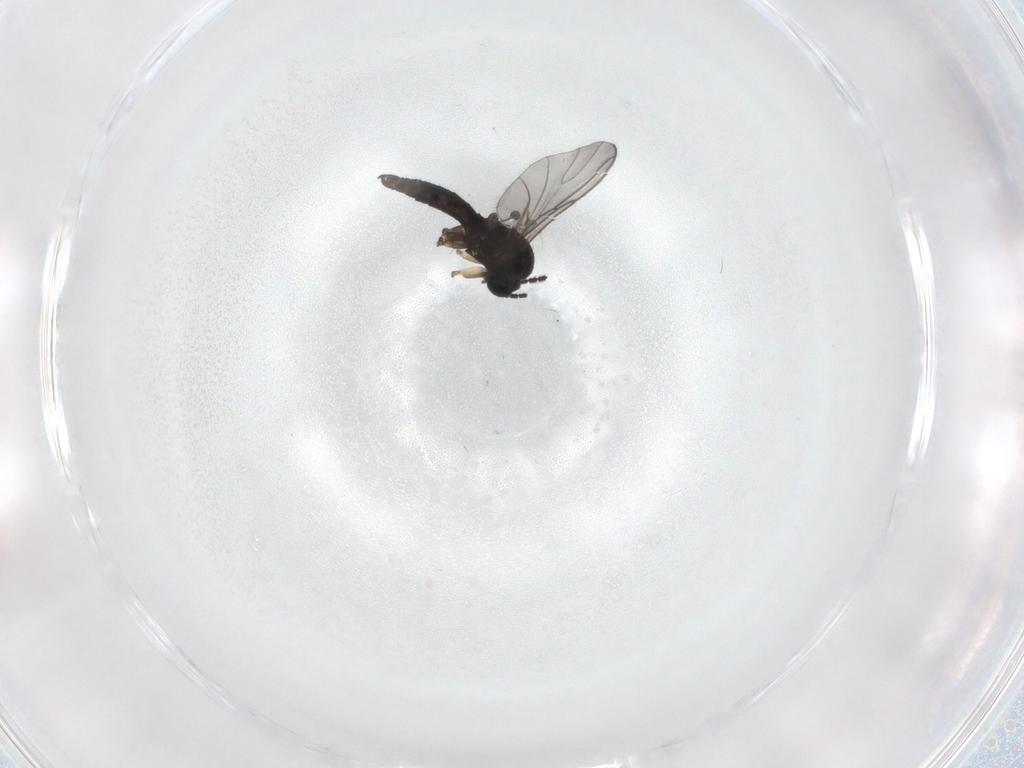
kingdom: Animalia
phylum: Arthropoda
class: Insecta
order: Diptera
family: Sciaridae
